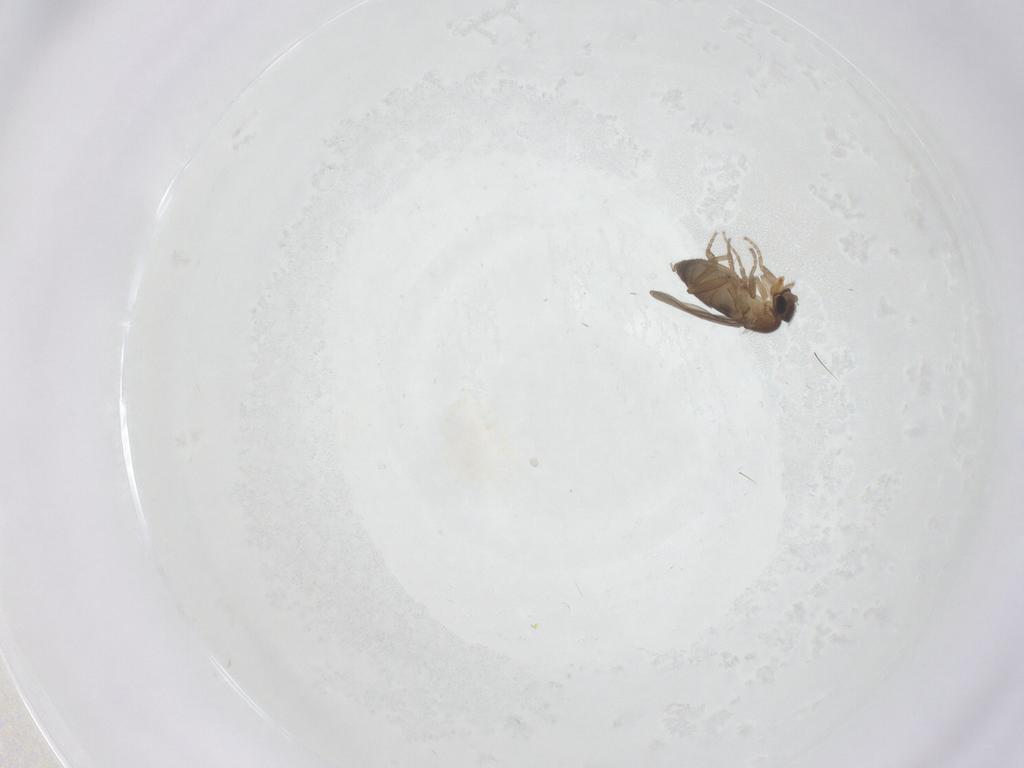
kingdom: Animalia
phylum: Arthropoda
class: Insecta
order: Diptera
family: Chironomidae
